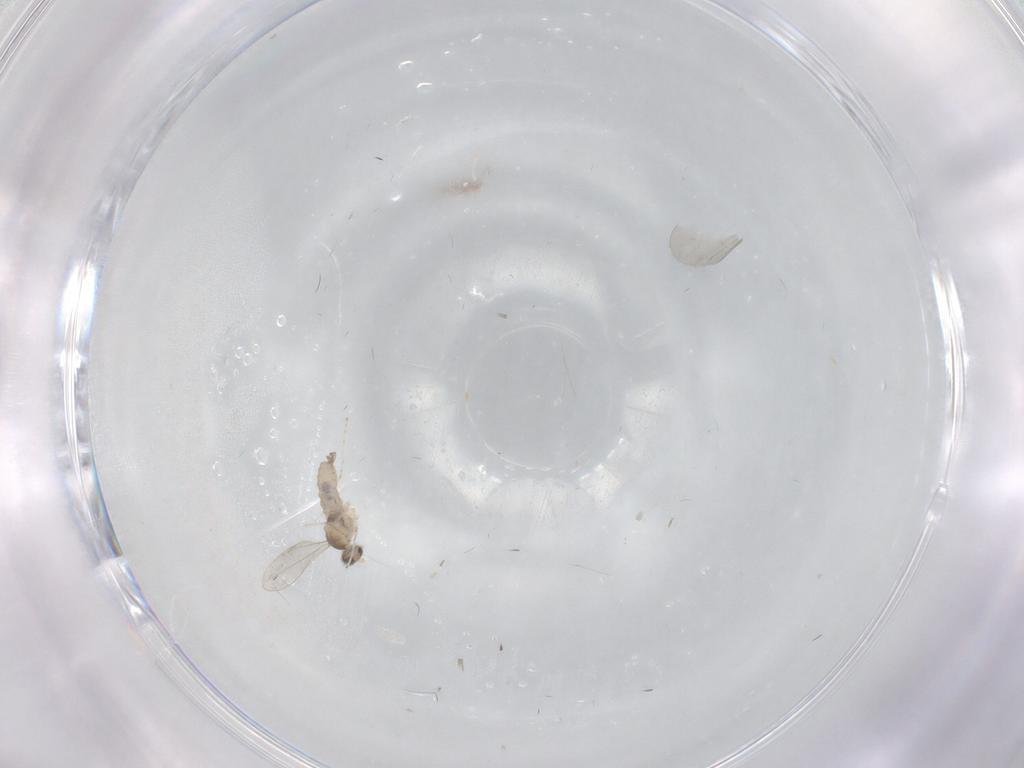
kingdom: Animalia
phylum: Arthropoda
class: Insecta
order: Diptera
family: Cecidomyiidae
